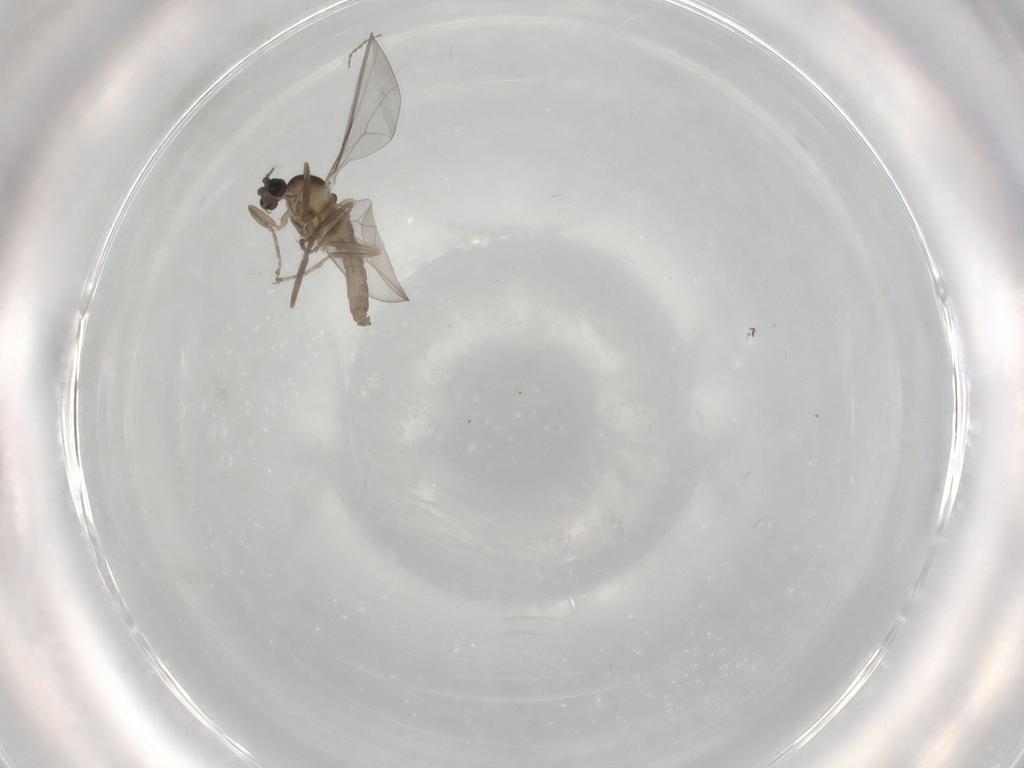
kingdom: Animalia
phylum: Arthropoda
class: Insecta
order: Diptera
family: Cecidomyiidae
